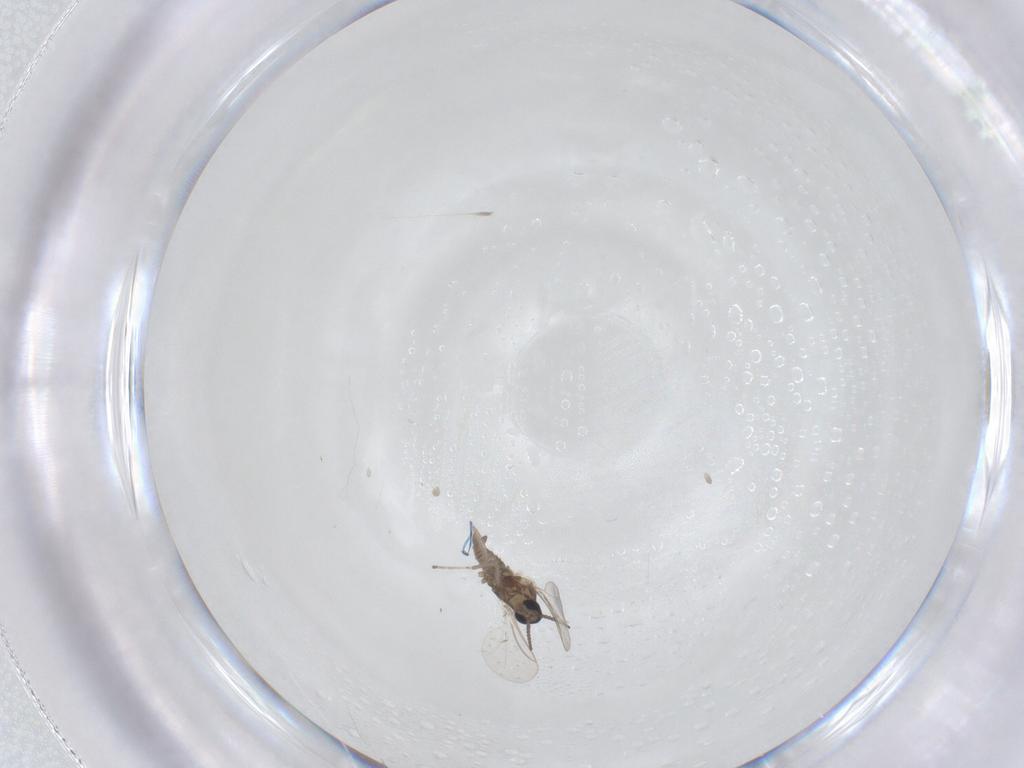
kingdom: Animalia
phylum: Arthropoda
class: Insecta
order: Diptera
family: Cecidomyiidae
